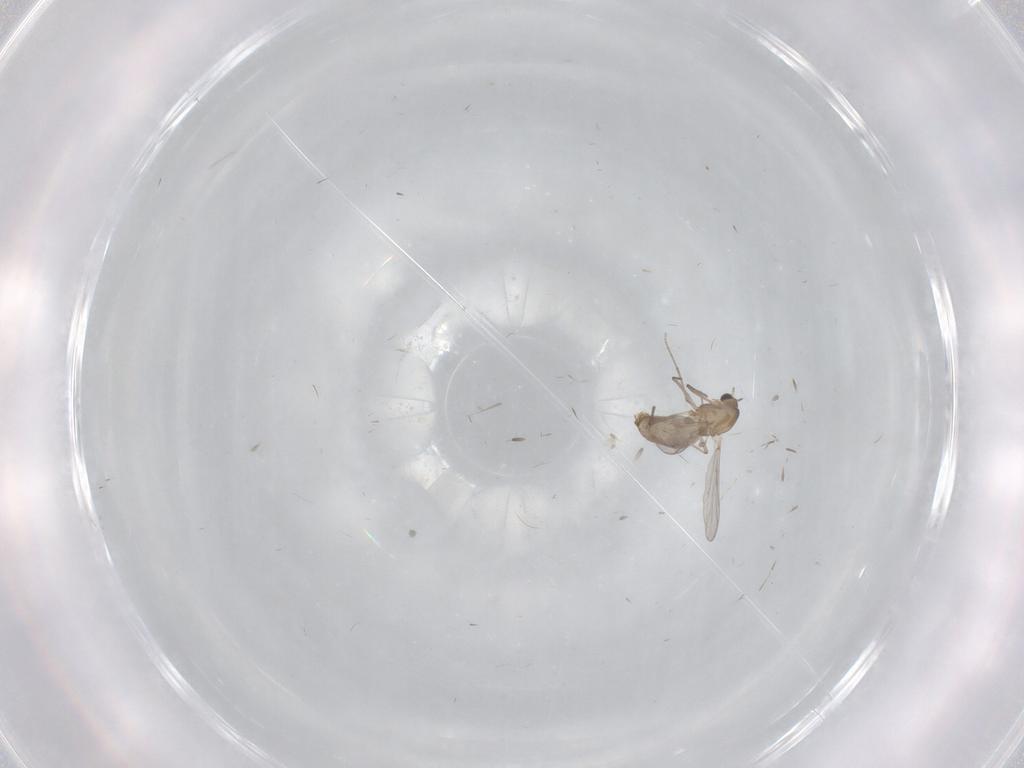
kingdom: Animalia
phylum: Arthropoda
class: Insecta
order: Diptera
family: Chironomidae
